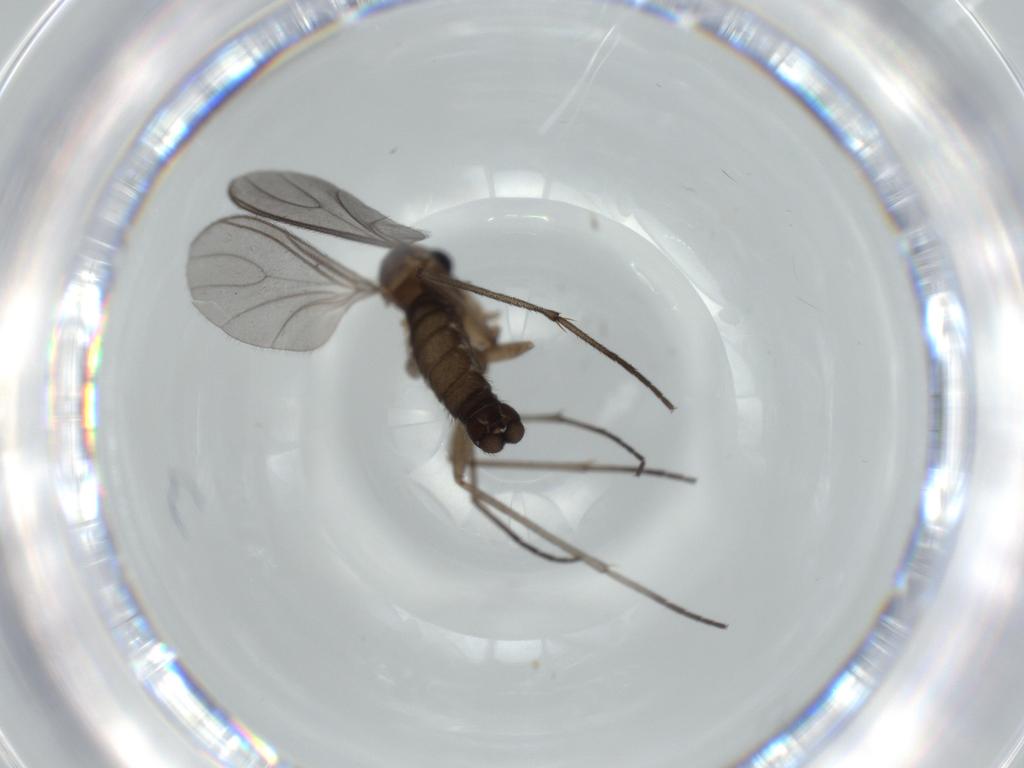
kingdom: Animalia
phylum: Arthropoda
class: Insecta
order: Diptera
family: Sciaridae
